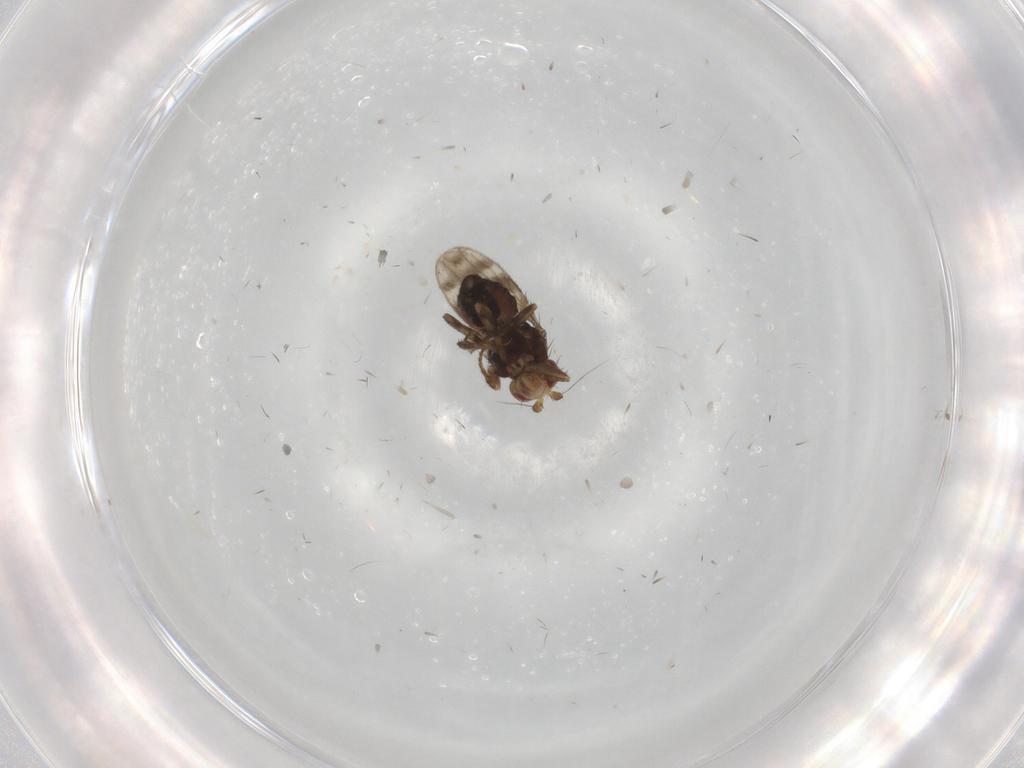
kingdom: Animalia
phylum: Arthropoda
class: Insecta
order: Diptera
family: Sphaeroceridae
